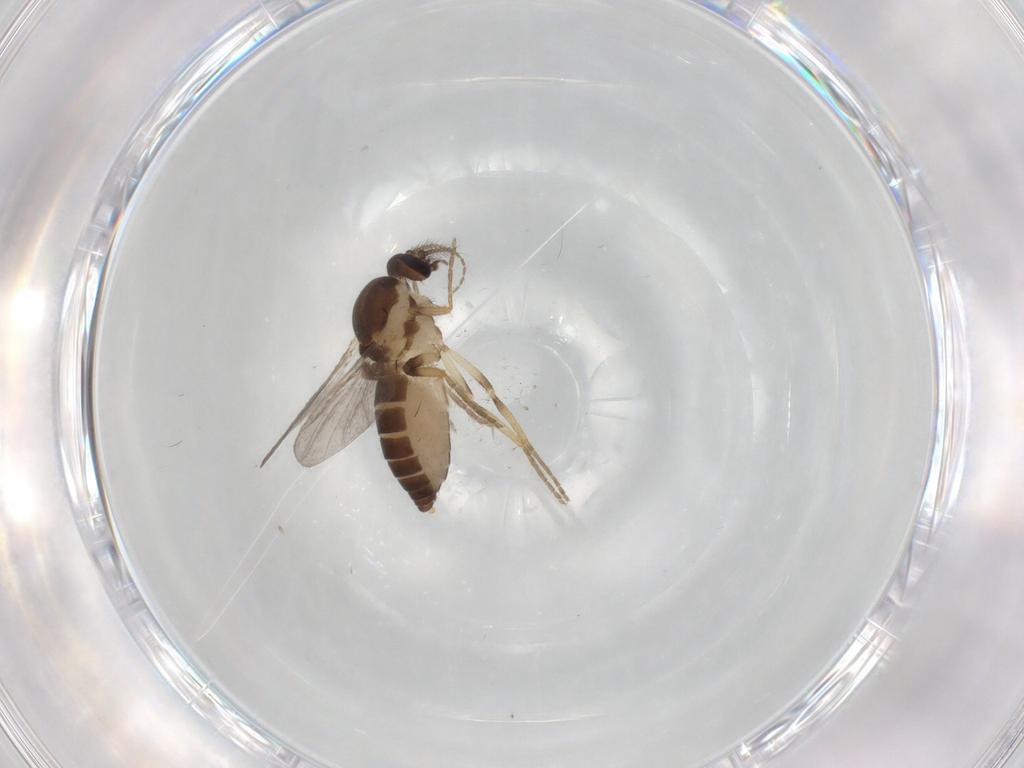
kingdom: Animalia
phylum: Arthropoda
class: Insecta
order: Diptera
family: Ceratopogonidae
